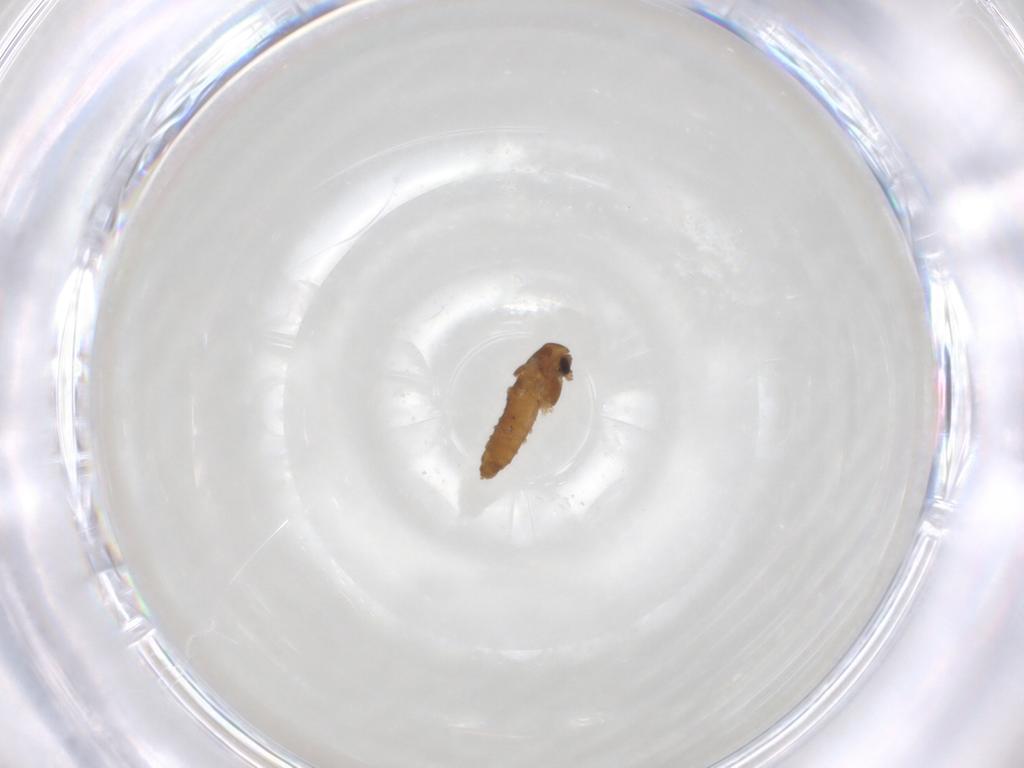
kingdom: Animalia
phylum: Arthropoda
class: Insecta
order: Diptera
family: Chironomidae
